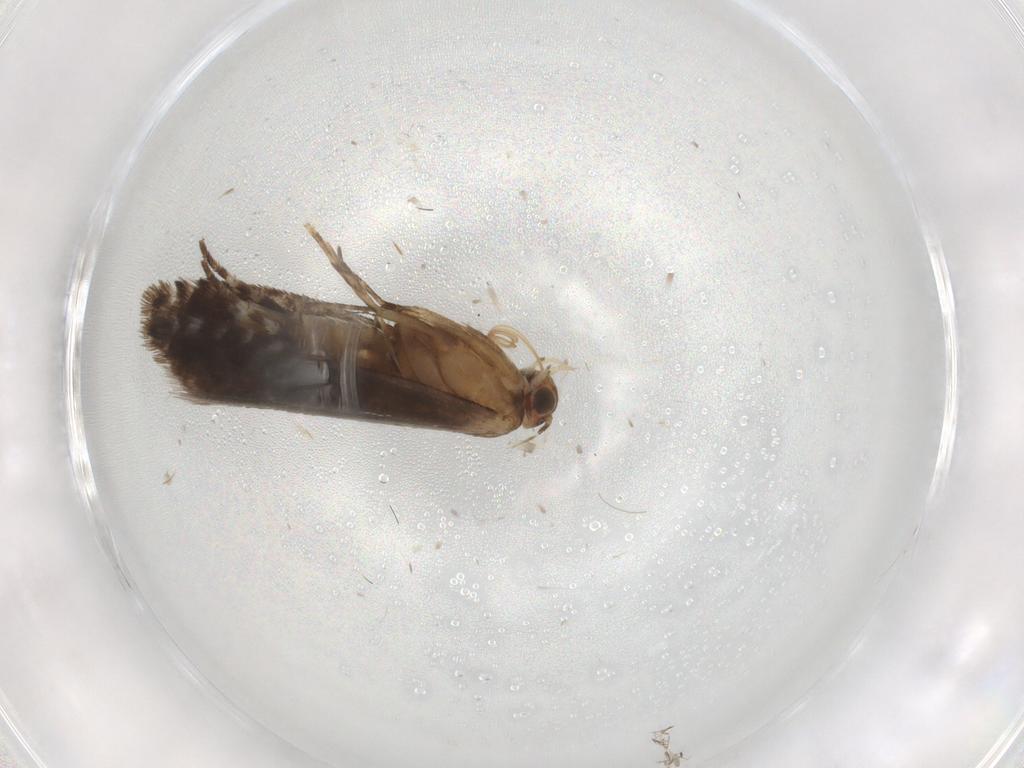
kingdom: Animalia
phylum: Arthropoda
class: Insecta
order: Lepidoptera
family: Glyphipterigidae
